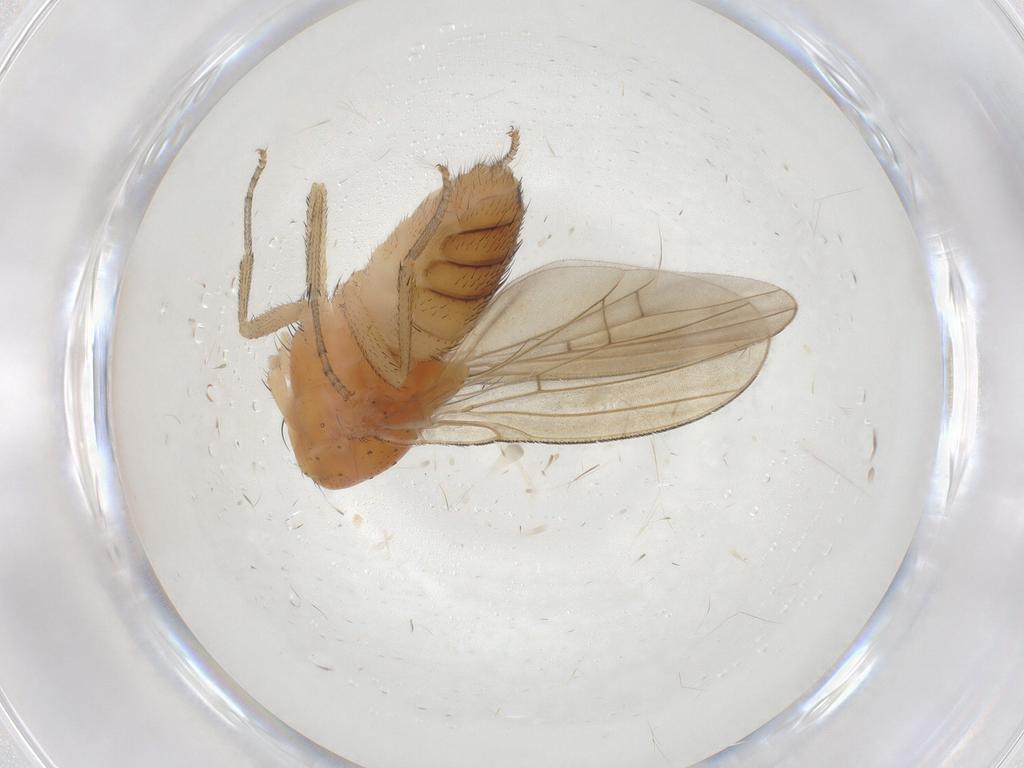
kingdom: Animalia
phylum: Arthropoda
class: Insecta
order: Diptera
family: Lauxaniidae
